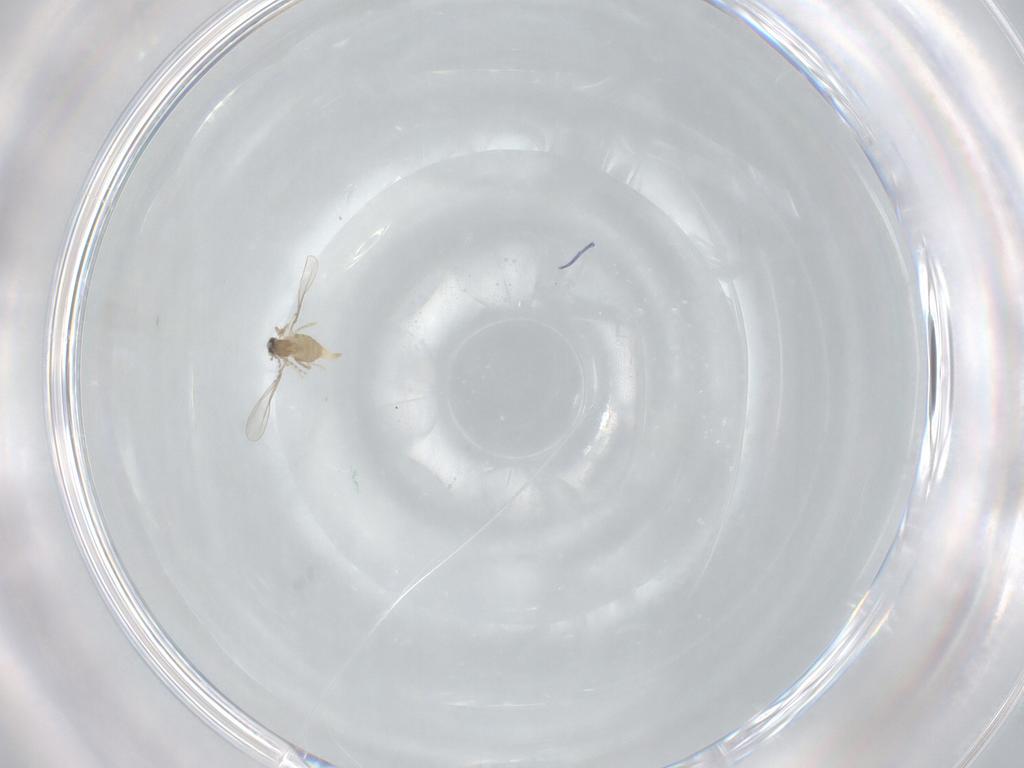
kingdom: Animalia
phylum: Arthropoda
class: Insecta
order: Diptera
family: Cecidomyiidae
